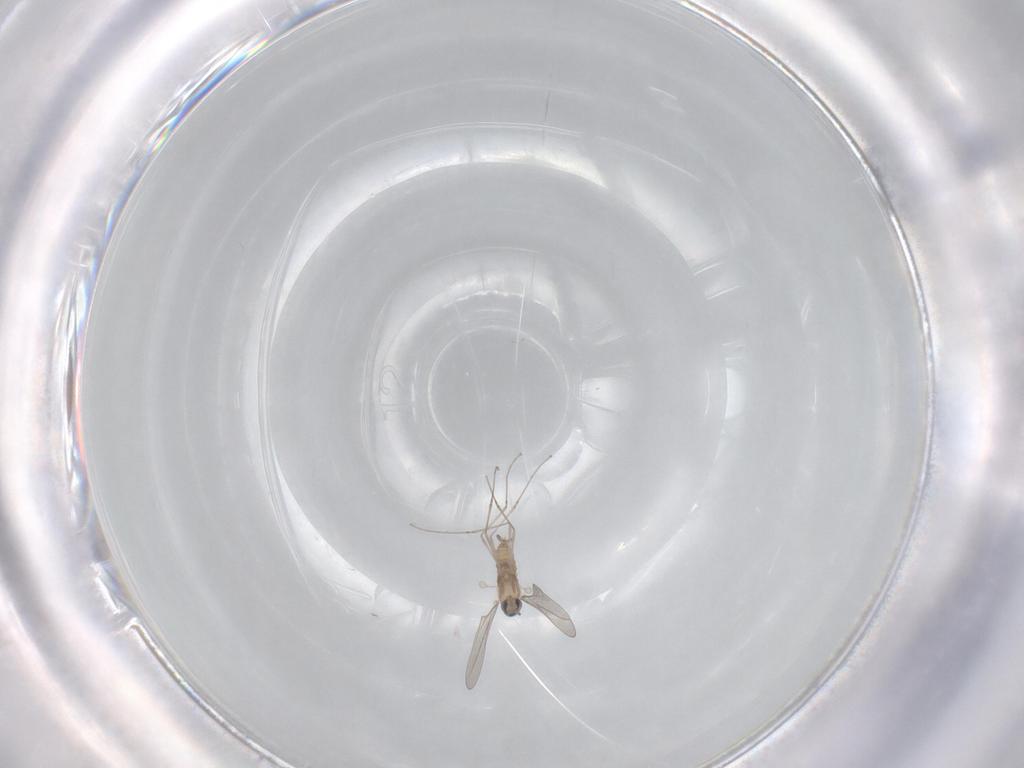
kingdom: Animalia
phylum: Arthropoda
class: Insecta
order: Diptera
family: Cecidomyiidae
